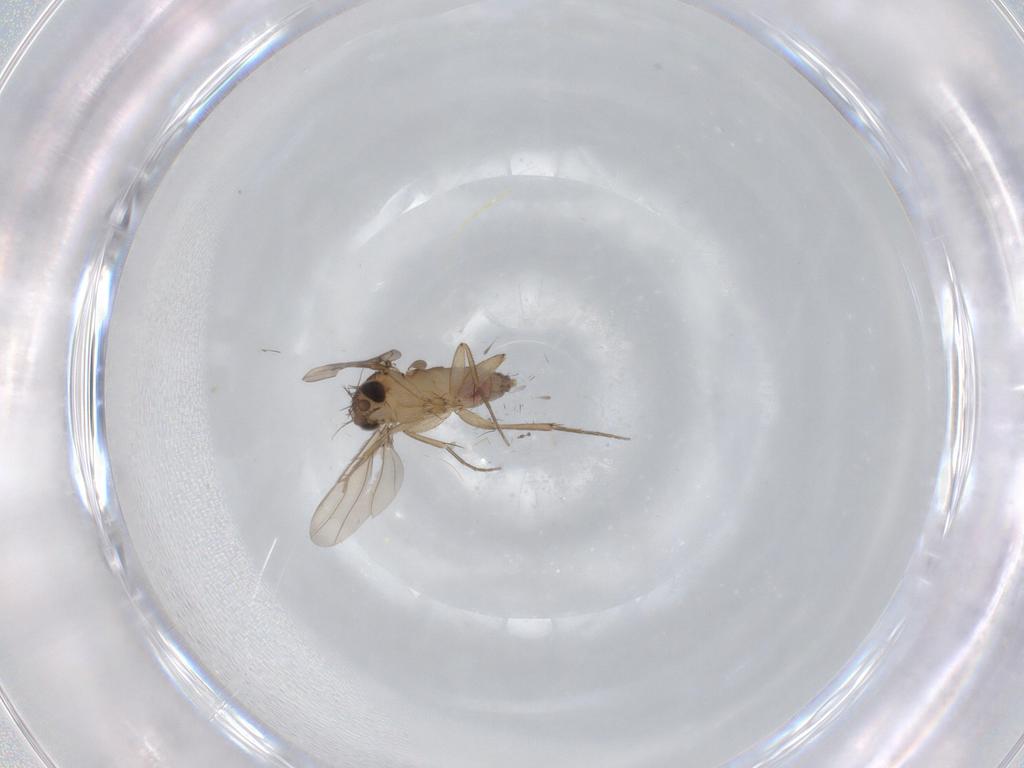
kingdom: Animalia
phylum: Arthropoda
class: Insecta
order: Diptera
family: Phoridae
